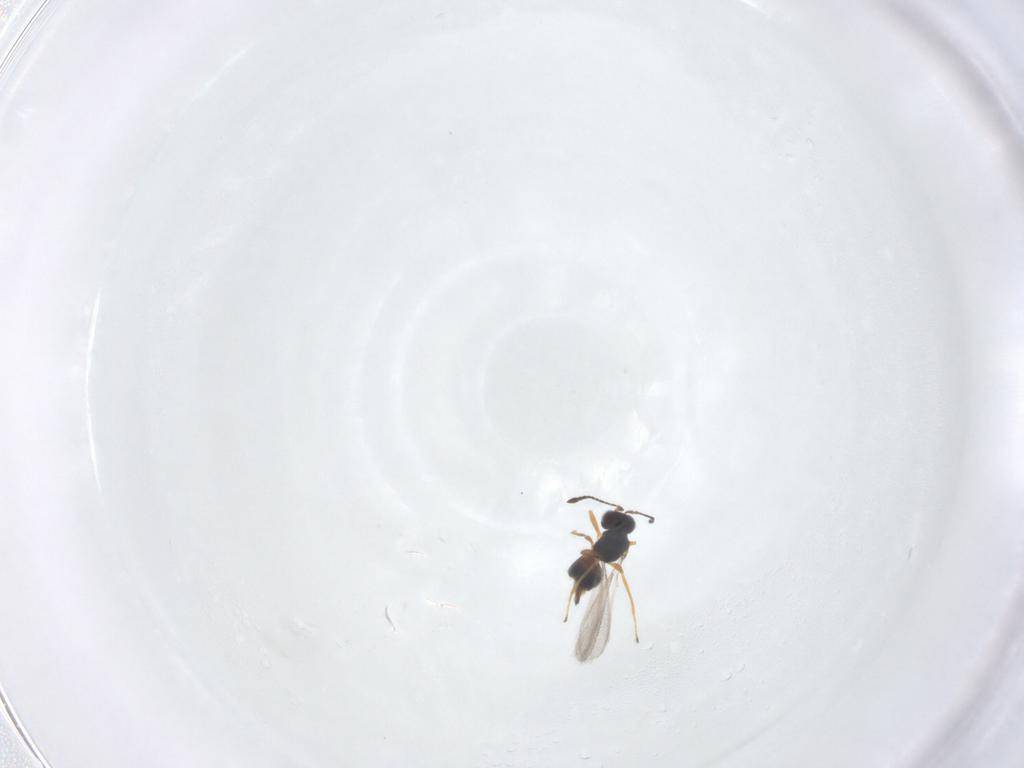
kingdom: Animalia
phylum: Arthropoda
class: Insecta
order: Hymenoptera
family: Mymaridae
